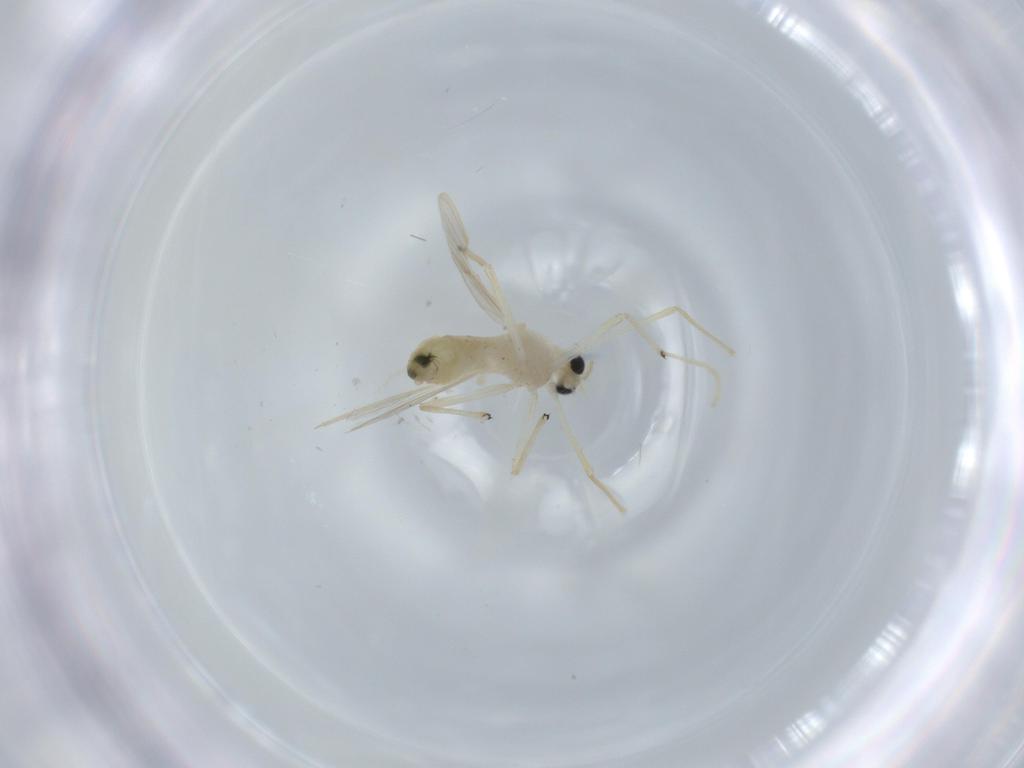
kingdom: Animalia
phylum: Arthropoda
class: Insecta
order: Diptera
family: Chironomidae
